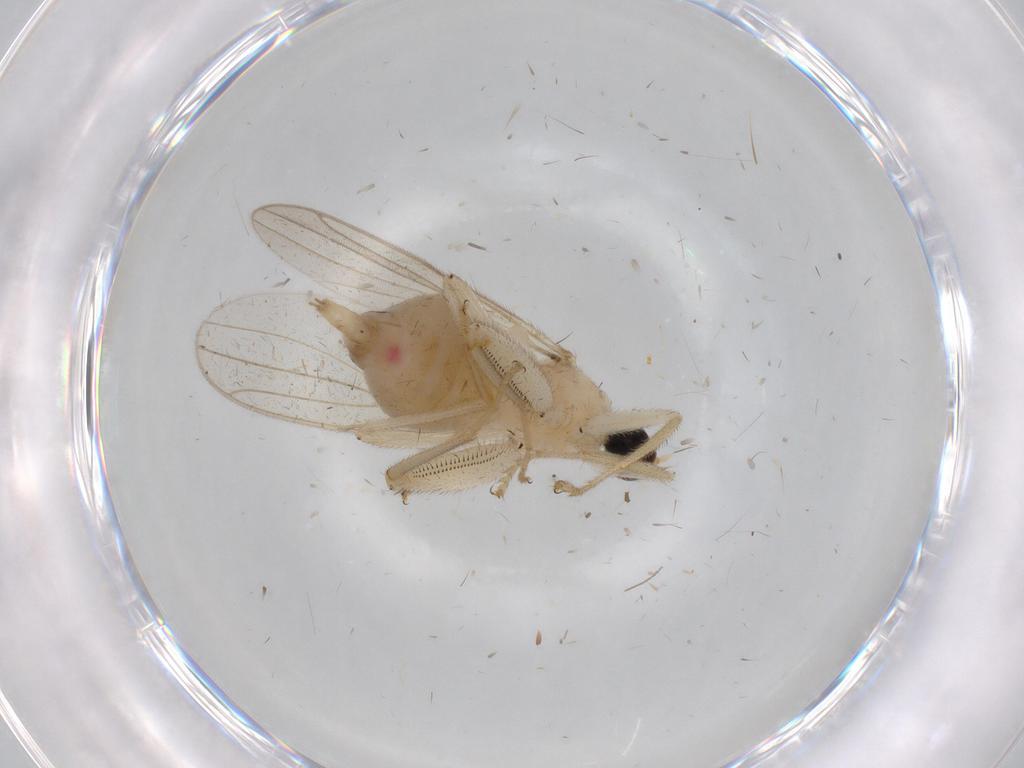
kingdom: Animalia
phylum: Arthropoda
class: Insecta
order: Diptera
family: Hybotidae
